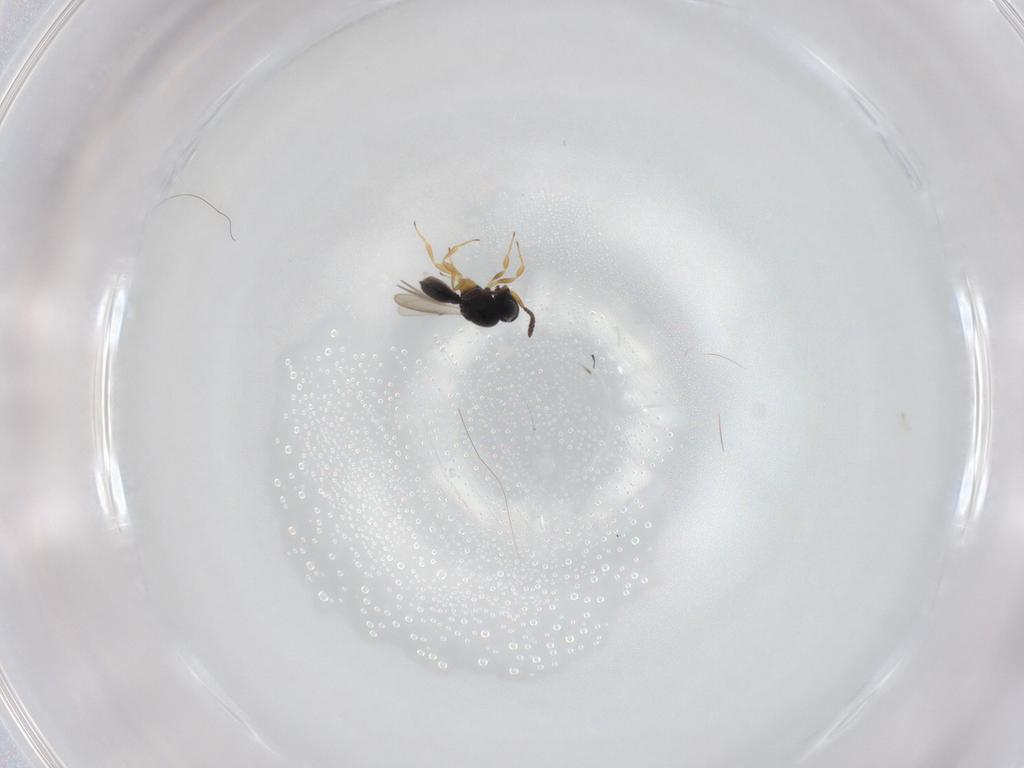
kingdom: Animalia
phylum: Arthropoda
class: Insecta
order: Hymenoptera
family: Scelionidae
